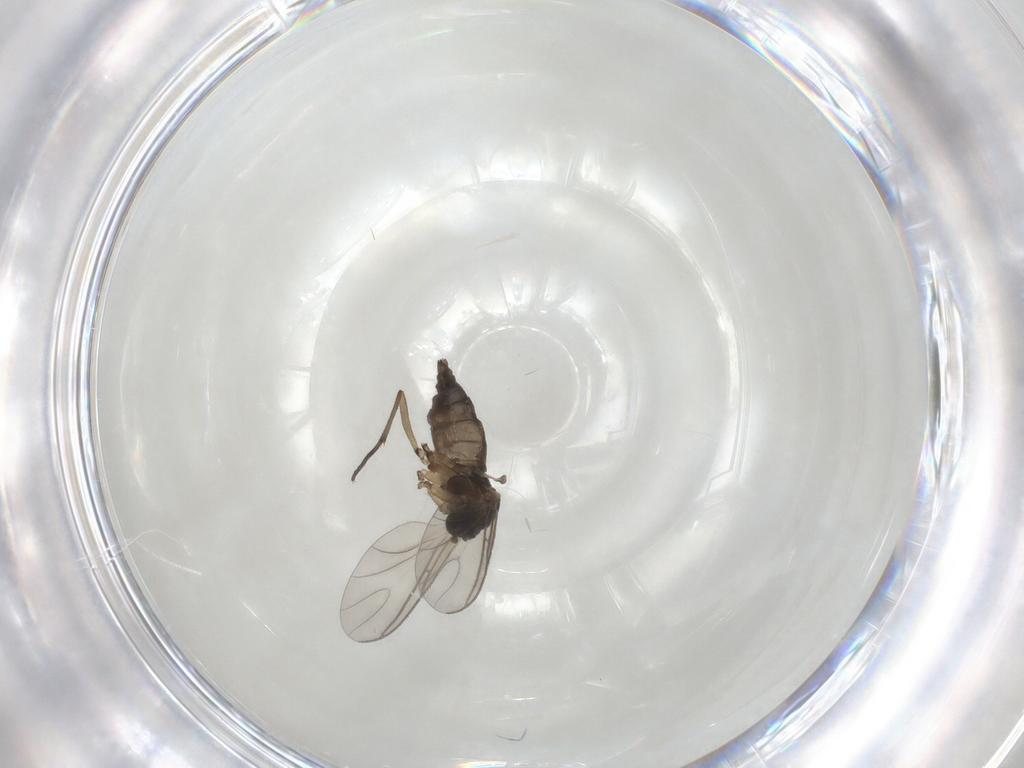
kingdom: Animalia
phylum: Arthropoda
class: Insecta
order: Diptera
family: Sciaridae
